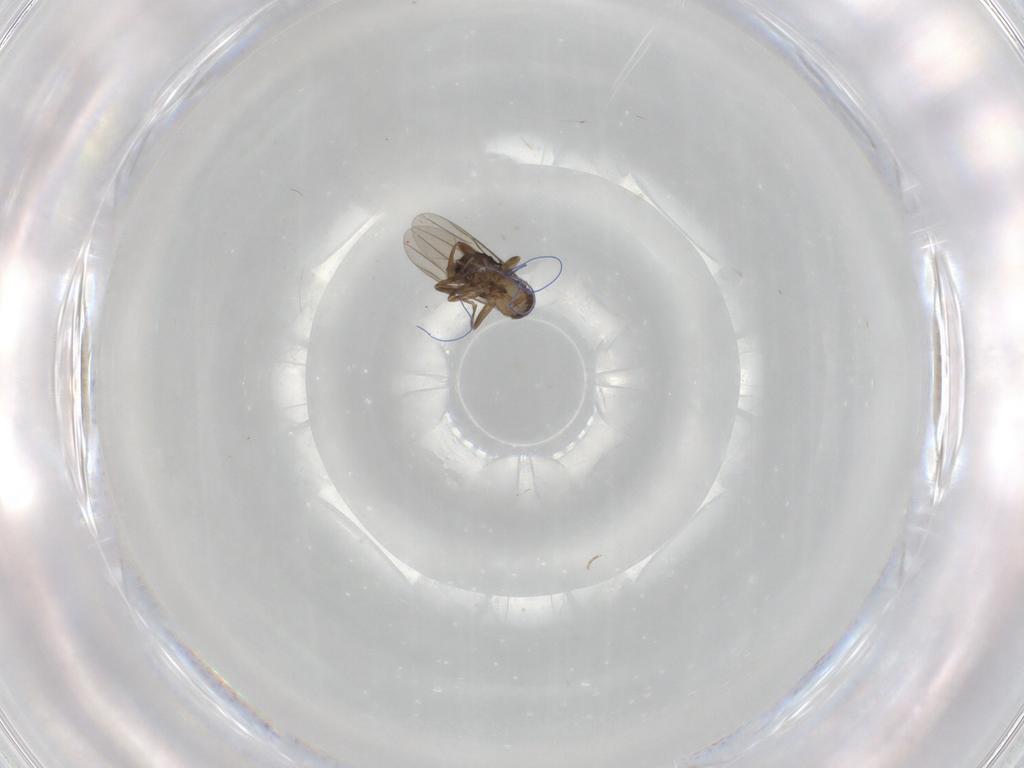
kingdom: Animalia
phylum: Arthropoda
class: Insecta
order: Diptera
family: Phoridae
